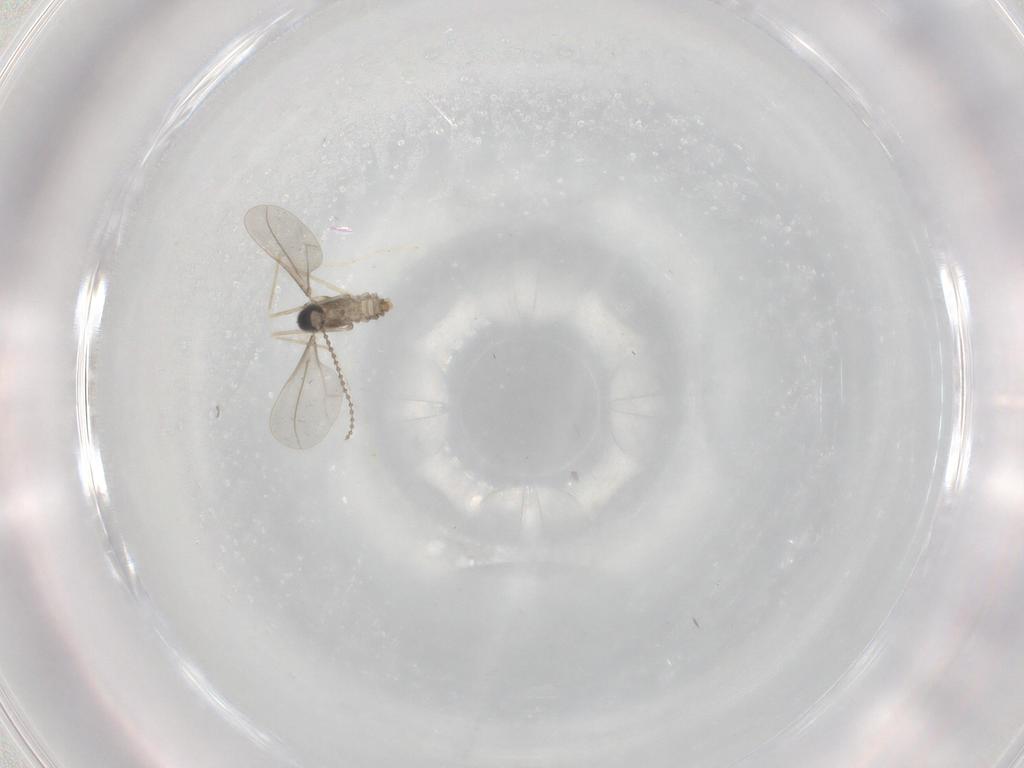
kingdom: Animalia
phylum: Arthropoda
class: Insecta
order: Diptera
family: Ceratopogonidae
